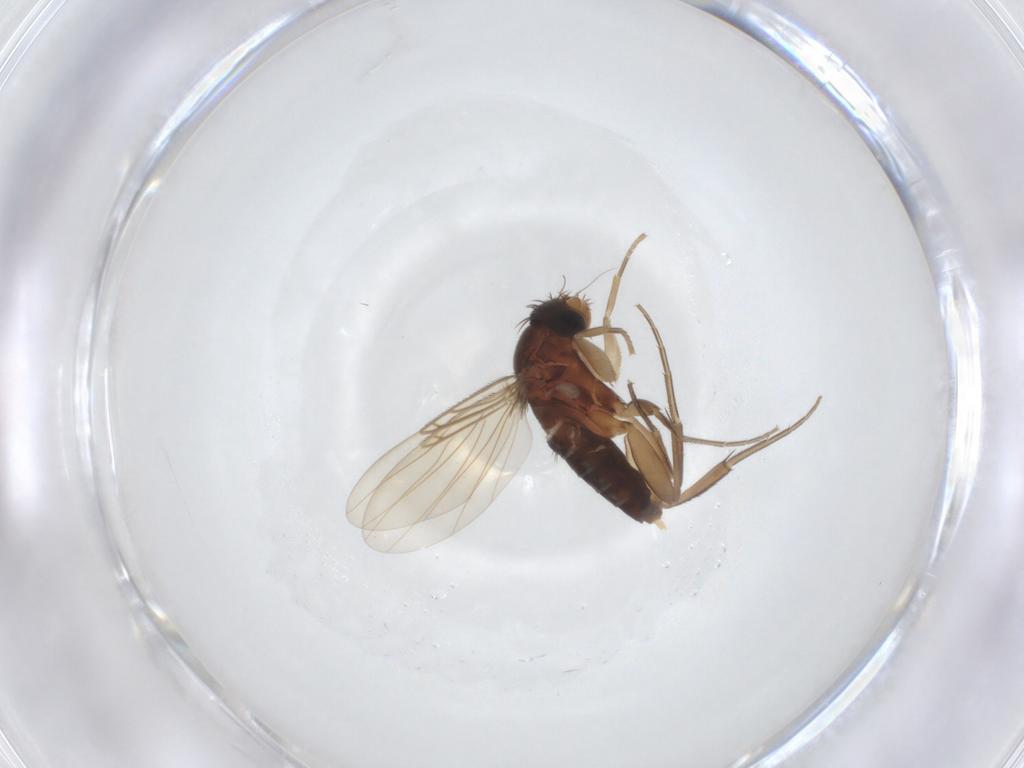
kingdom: Animalia
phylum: Arthropoda
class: Insecta
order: Diptera
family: Phoridae
